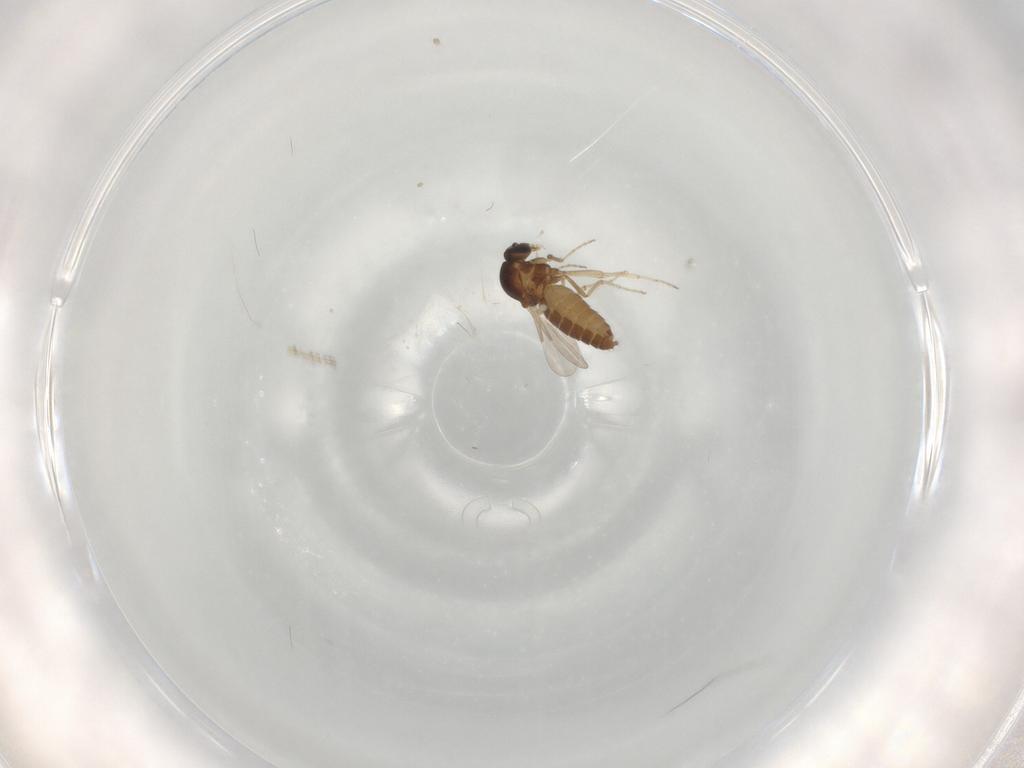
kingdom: Animalia
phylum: Arthropoda
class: Insecta
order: Diptera
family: Ceratopogonidae
